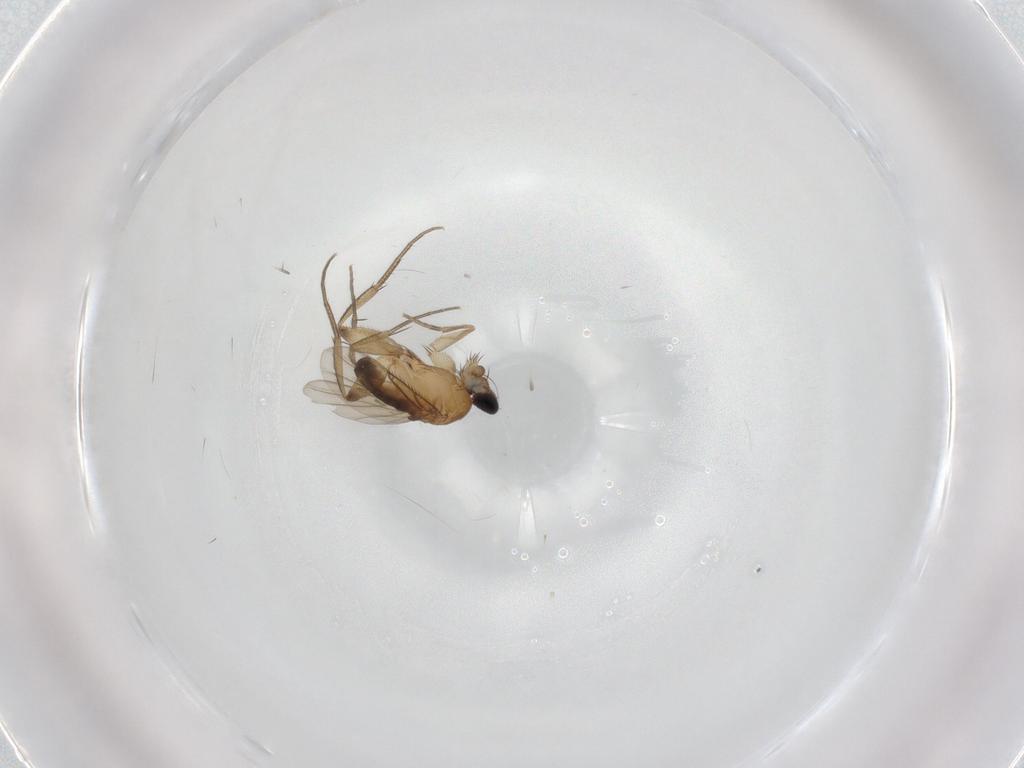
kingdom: Animalia
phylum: Arthropoda
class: Insecta
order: Diptera
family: Phoridae
